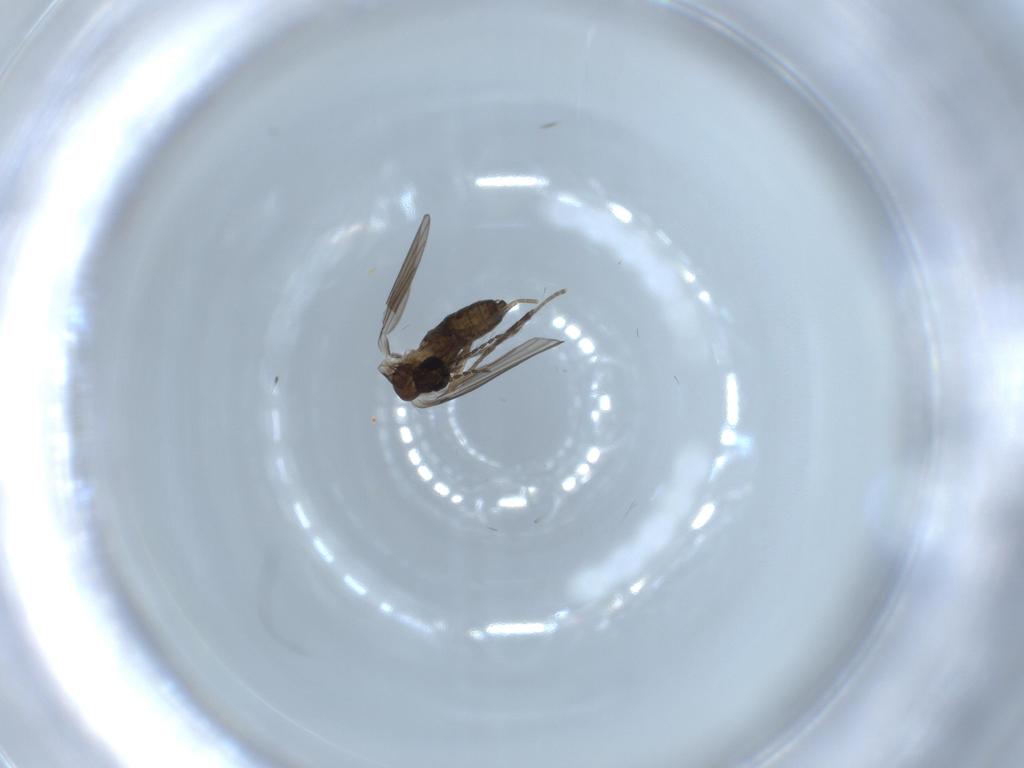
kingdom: Animalia
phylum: Arthropoda
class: Insecta
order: Diptera
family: Psychodidae
